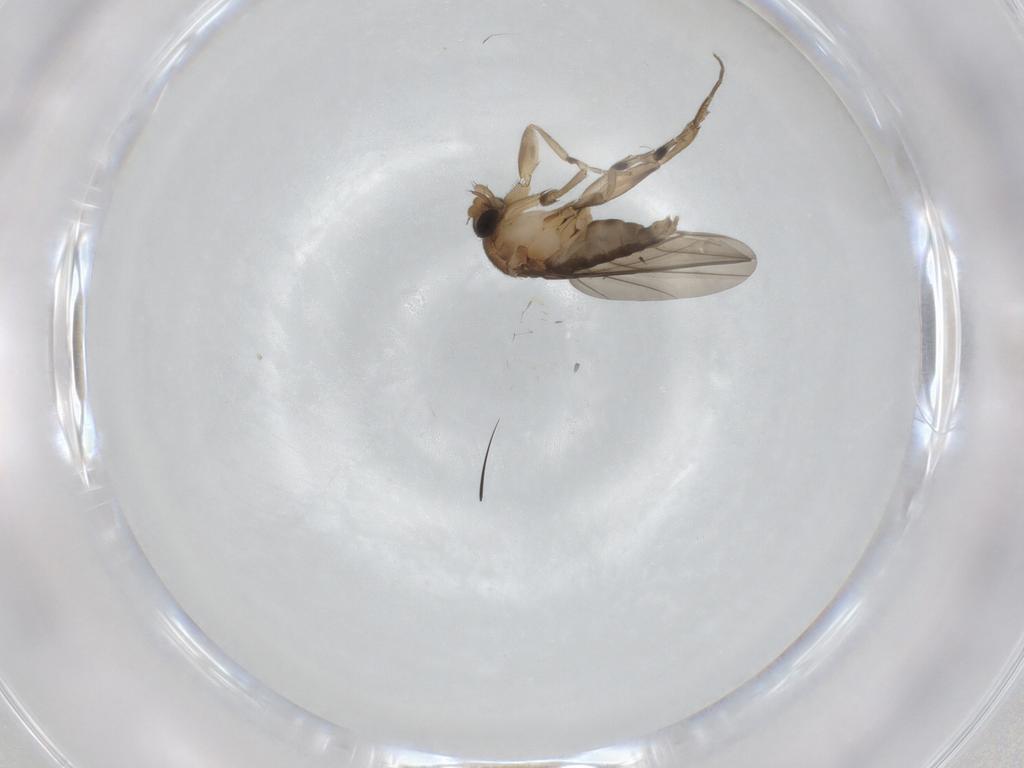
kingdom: Animalia
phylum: Arthropoda
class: Insecta
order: Diptera
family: Phoridae
